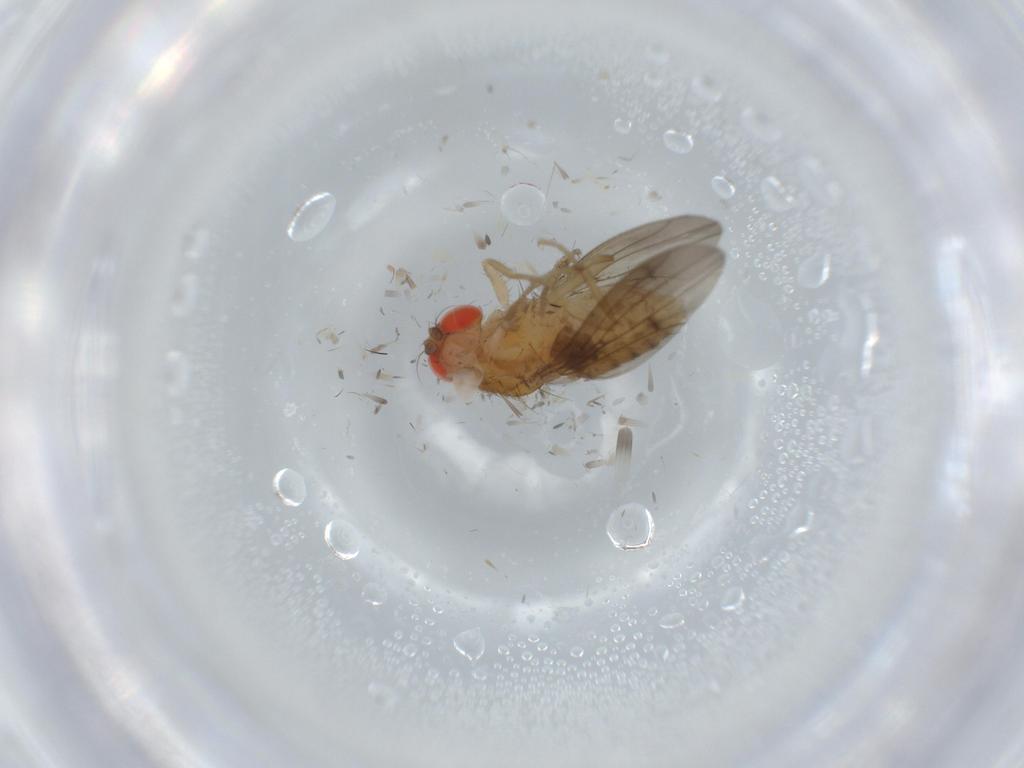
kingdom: Animalia
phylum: Arthropoda
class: Insecta
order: Diptera
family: Drosophilidae
